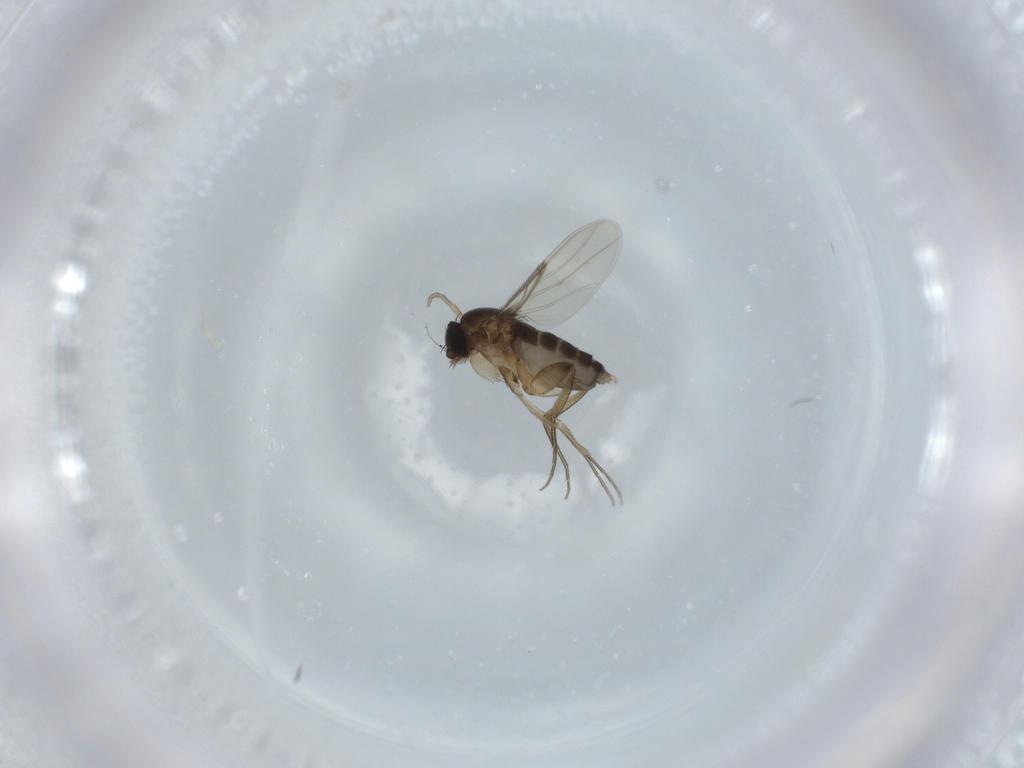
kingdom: Animalia
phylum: Arthropoda
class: Insecta
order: Diptera
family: Phoridae
